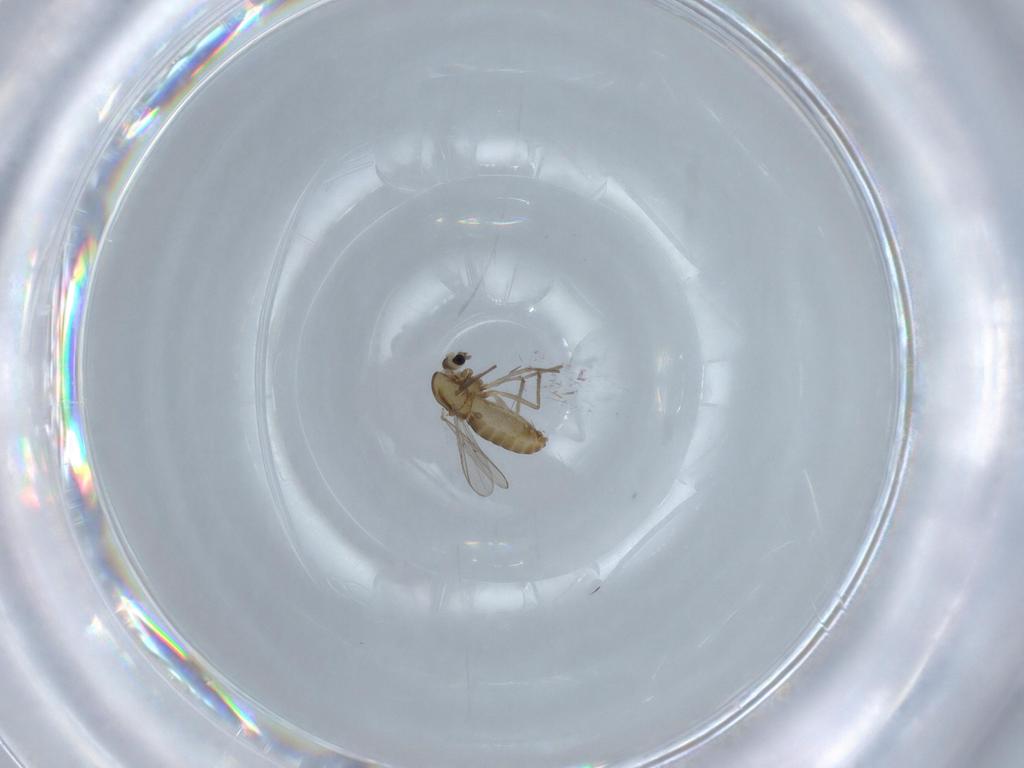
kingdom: Animalia
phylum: Arthropoda
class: Insecta
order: Diptera
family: Chironomidae
